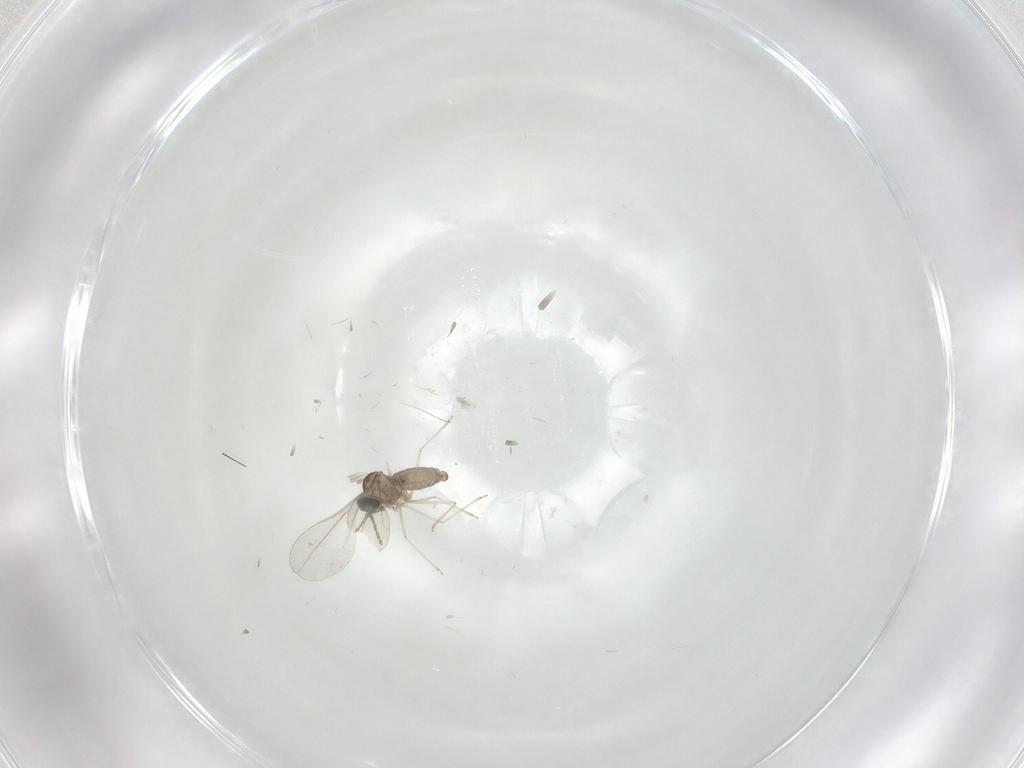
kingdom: Animalia
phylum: Arthropoda
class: Insecta
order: Diptera
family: Cecidomyiidae
